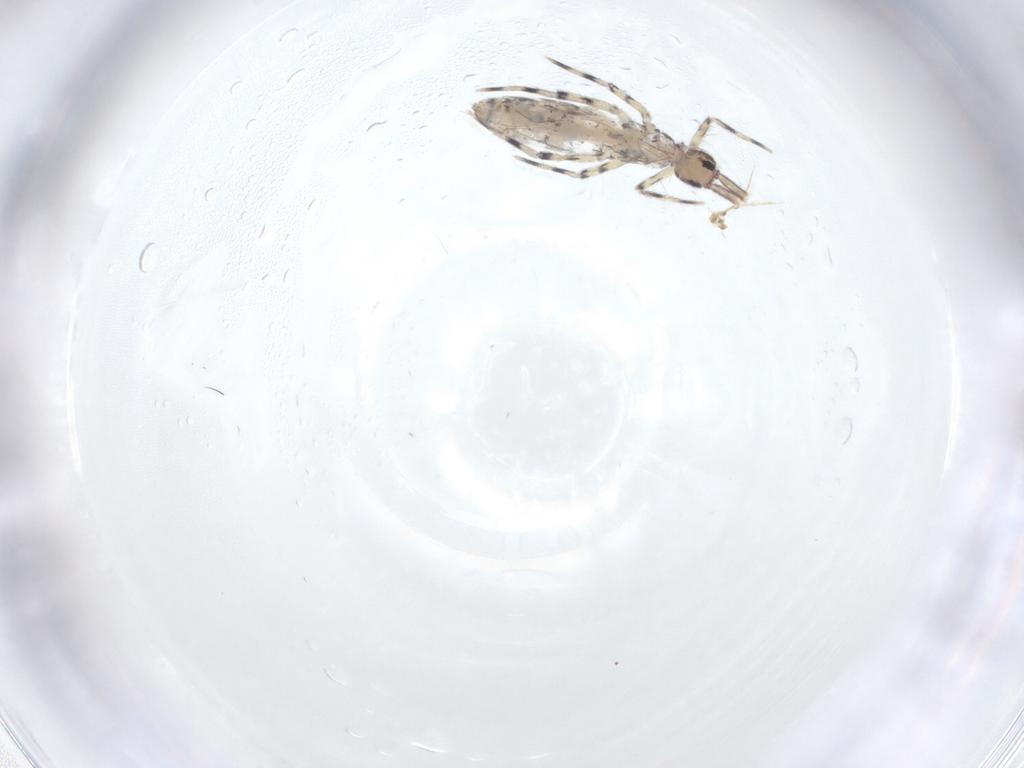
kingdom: Animalia
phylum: Arthropoda
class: Collembola
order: Entomobryomorpha
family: Entomobryidae
